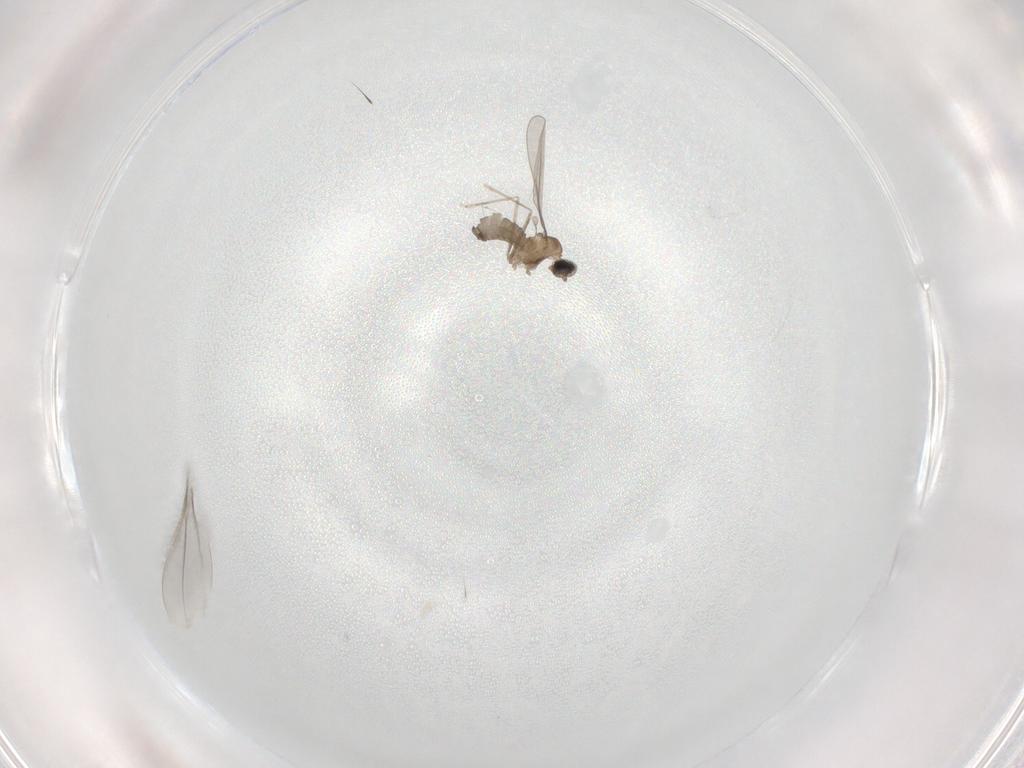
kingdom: Animalia
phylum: Arthropoda
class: Insecta
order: Diptera
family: Cecidomyiidae
